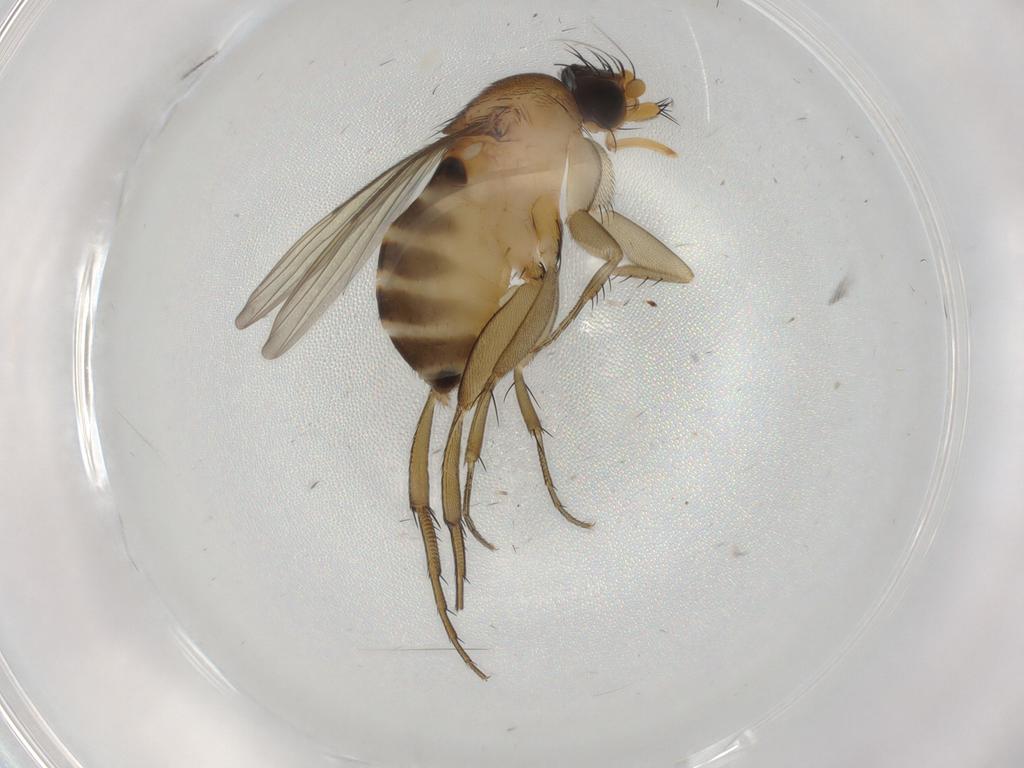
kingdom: Animalia
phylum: Arthropoda
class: Insecta
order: Diptera
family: Phoridae
